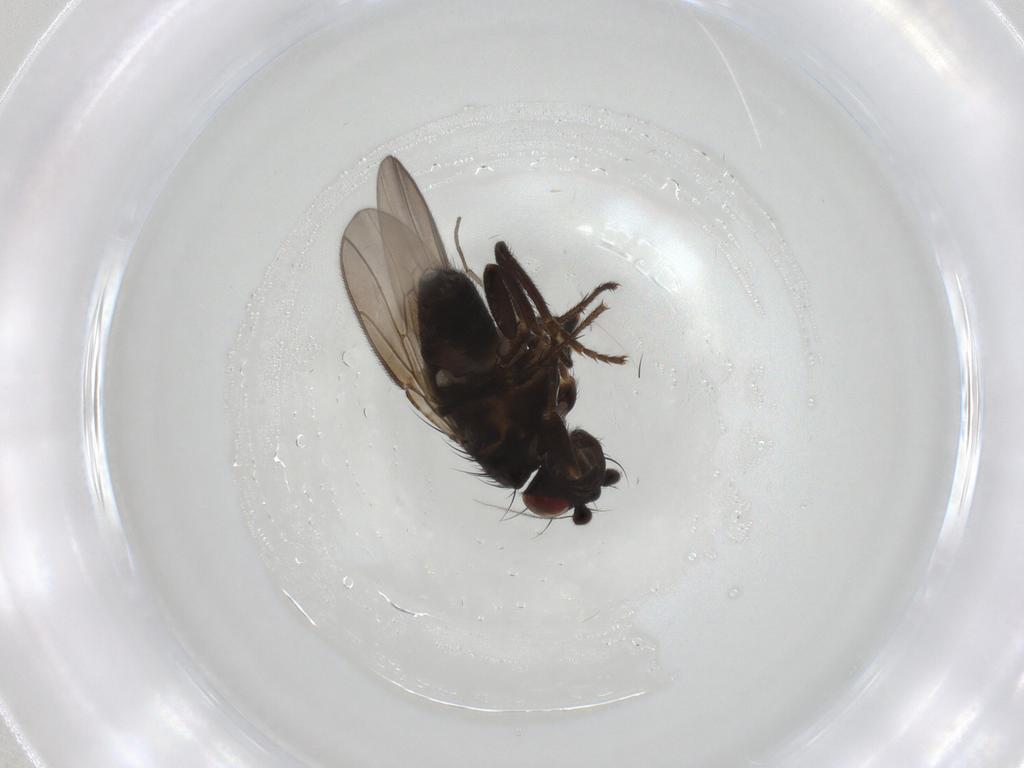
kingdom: Animalia
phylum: Arthropoda
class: Insecta
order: Diptera
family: Sphaeroceridae
